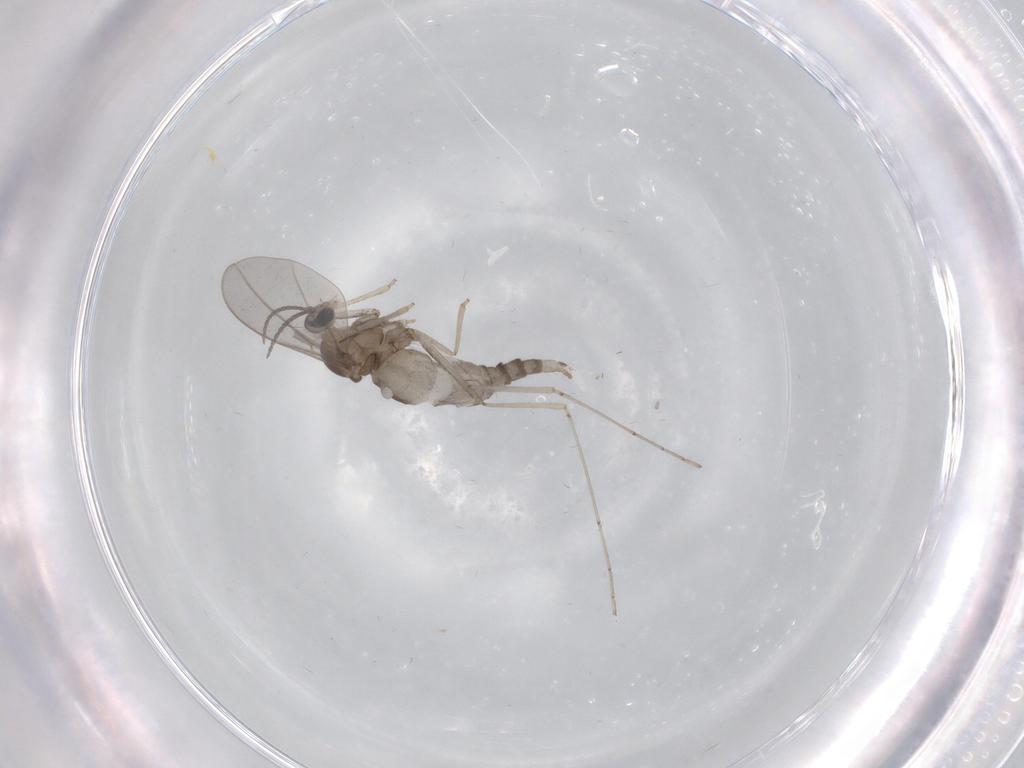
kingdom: Animalia
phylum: Arthropoda
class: Insecta
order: Diptera
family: Cecidomyiidae
